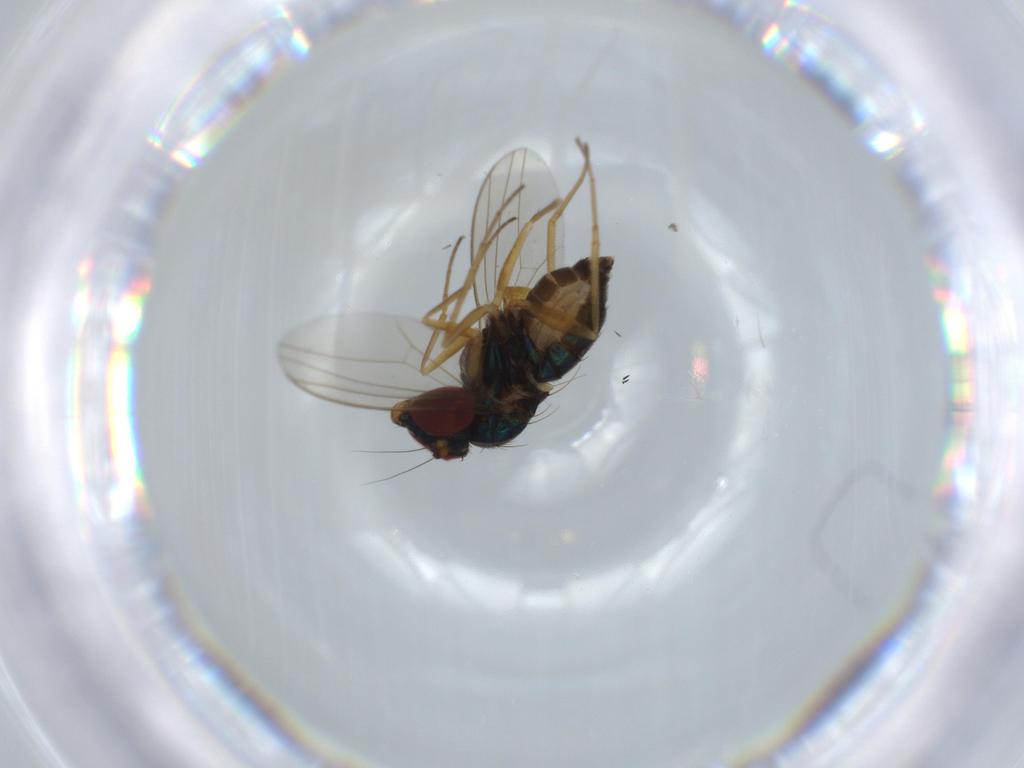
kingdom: Animalia
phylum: Arthropoda
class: Insecta
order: Diptera
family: Dolichopodidae
